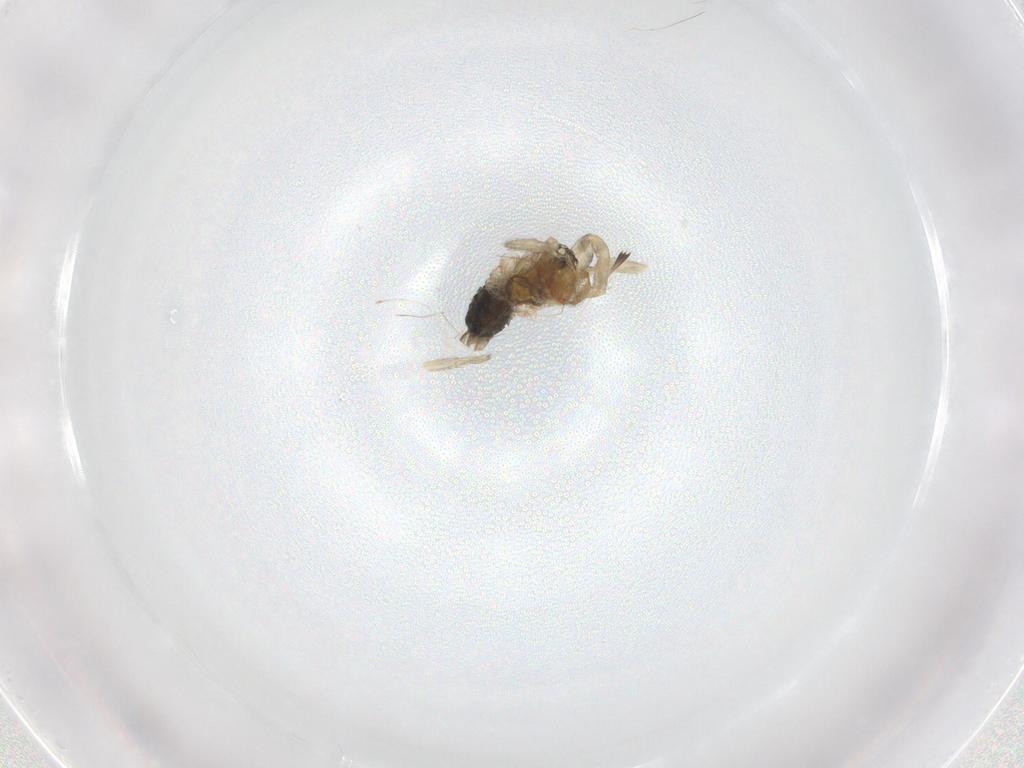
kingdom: Animalia
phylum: Arthropoda
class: Arachnida
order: Araneae
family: Hahniidae
